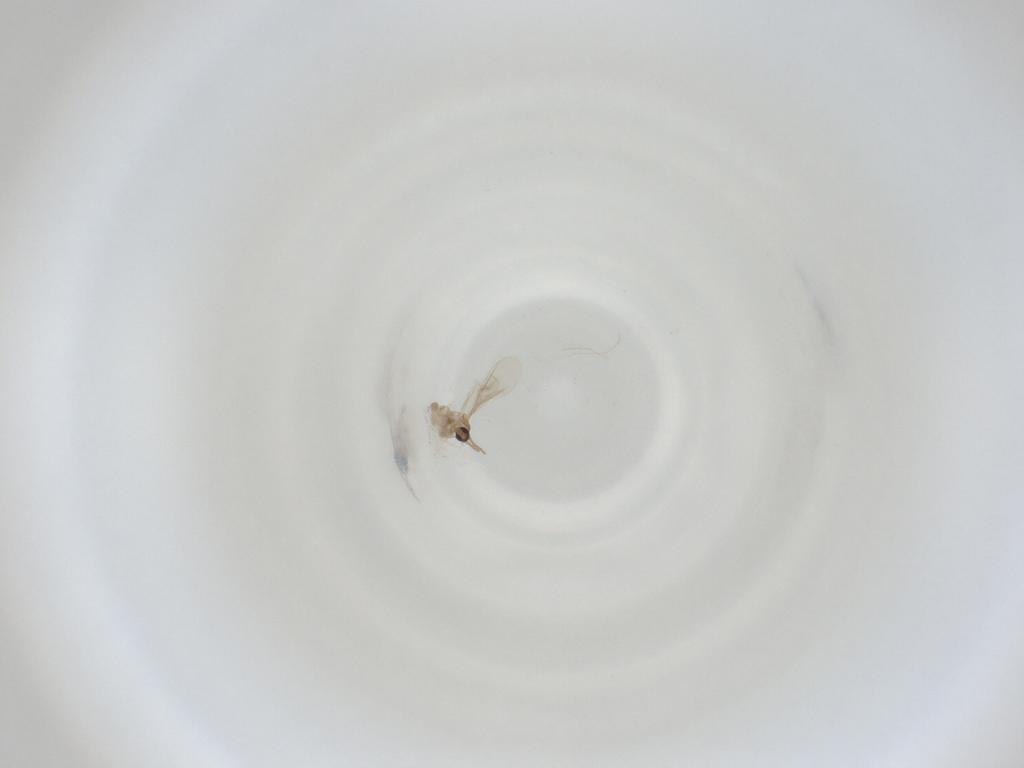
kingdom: Animalia
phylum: Arthropoda
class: Insecta
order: Diptera
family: Cecidomyiidae
